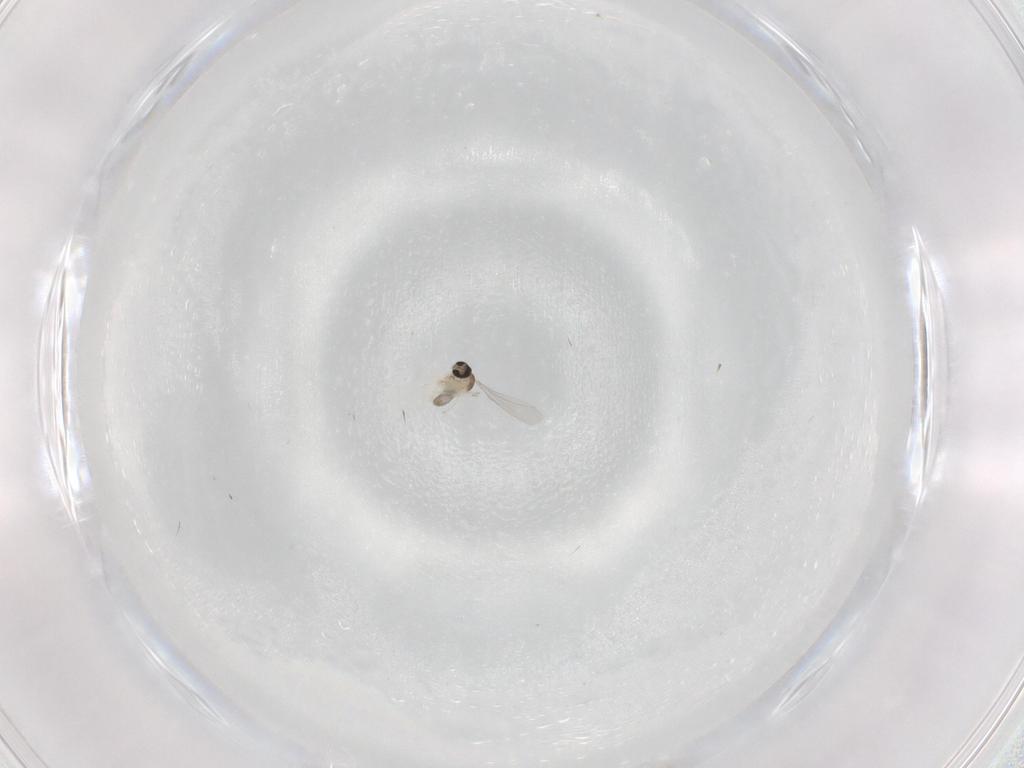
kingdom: Animalia
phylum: Arthropoda
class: Insecta
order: Diptera
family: Cecidomyiidae
